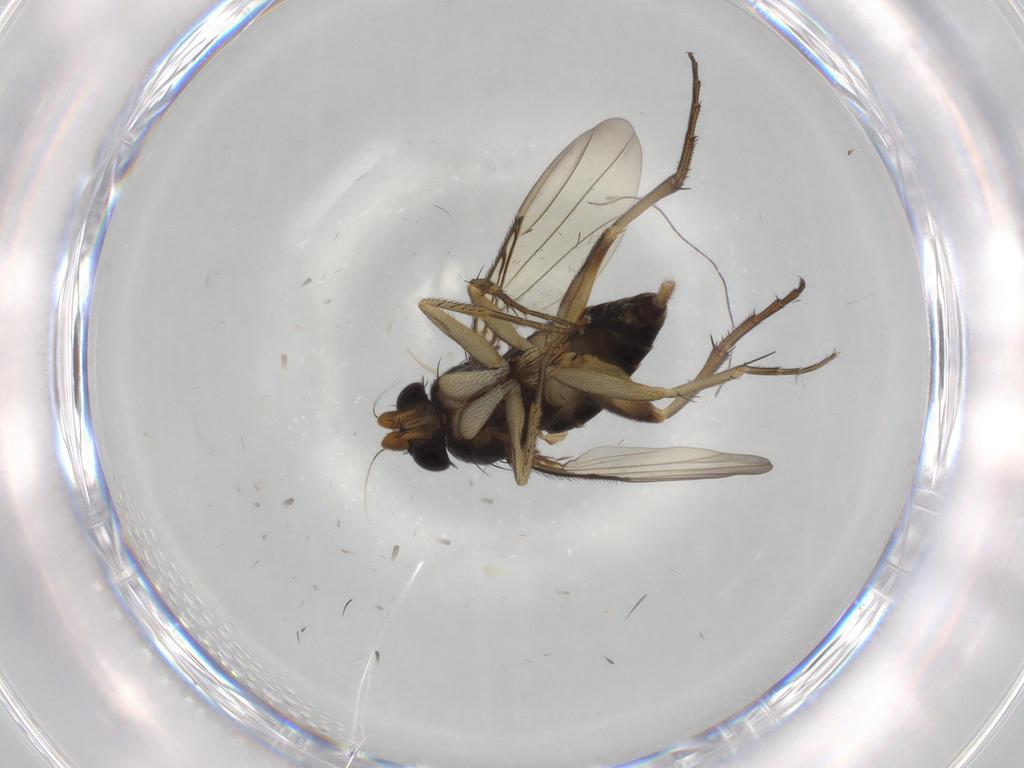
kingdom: Animalia
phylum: Arthropoda
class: Insecta
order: Diptera
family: Phoridae
